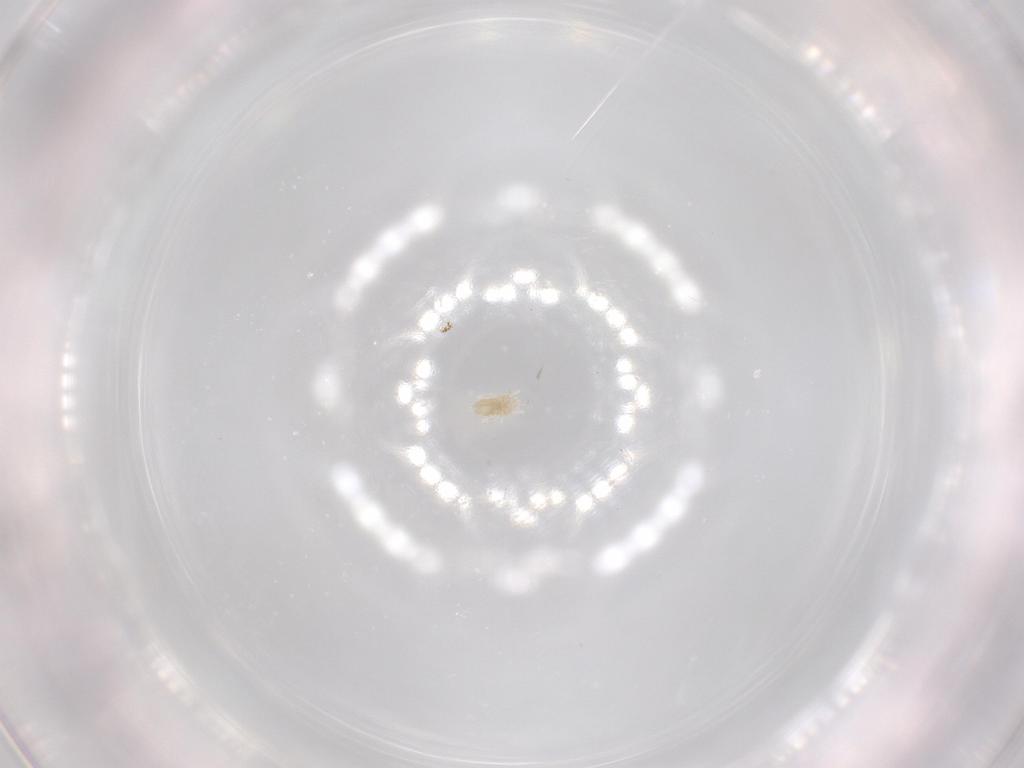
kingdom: Animalia
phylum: Arthropoda
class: Arachnida
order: Trombidiformes
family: Eupodidae
